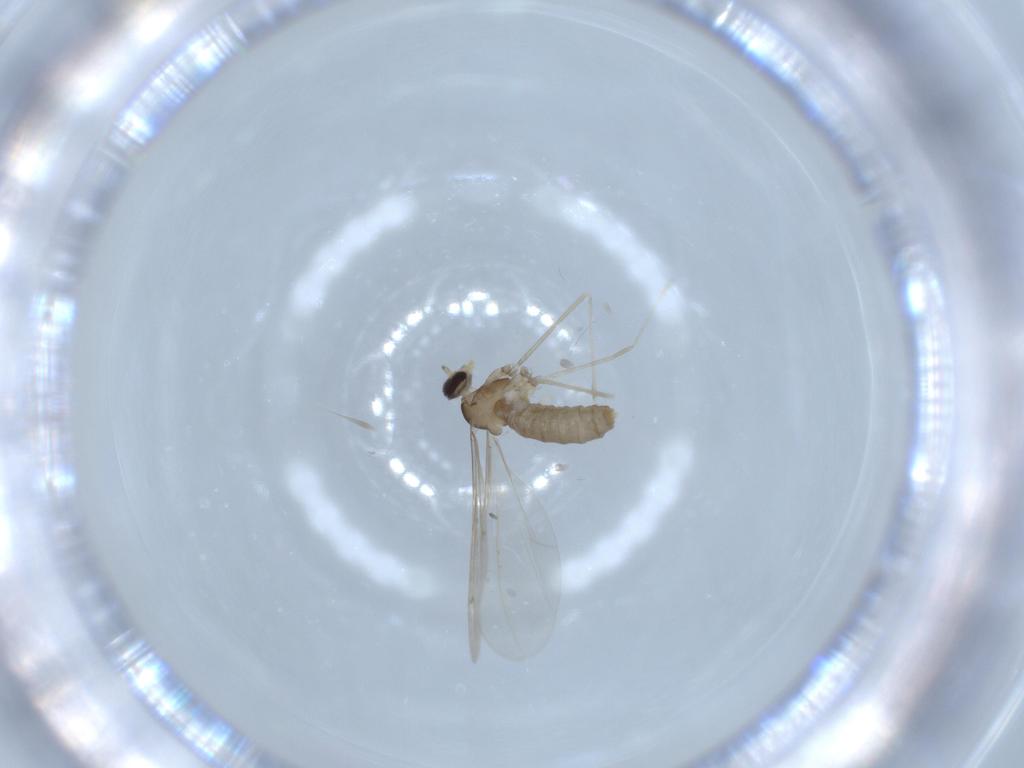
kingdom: Animalia
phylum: Arthropoda
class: Insecta
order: Diptera
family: Cecidomyiidae
